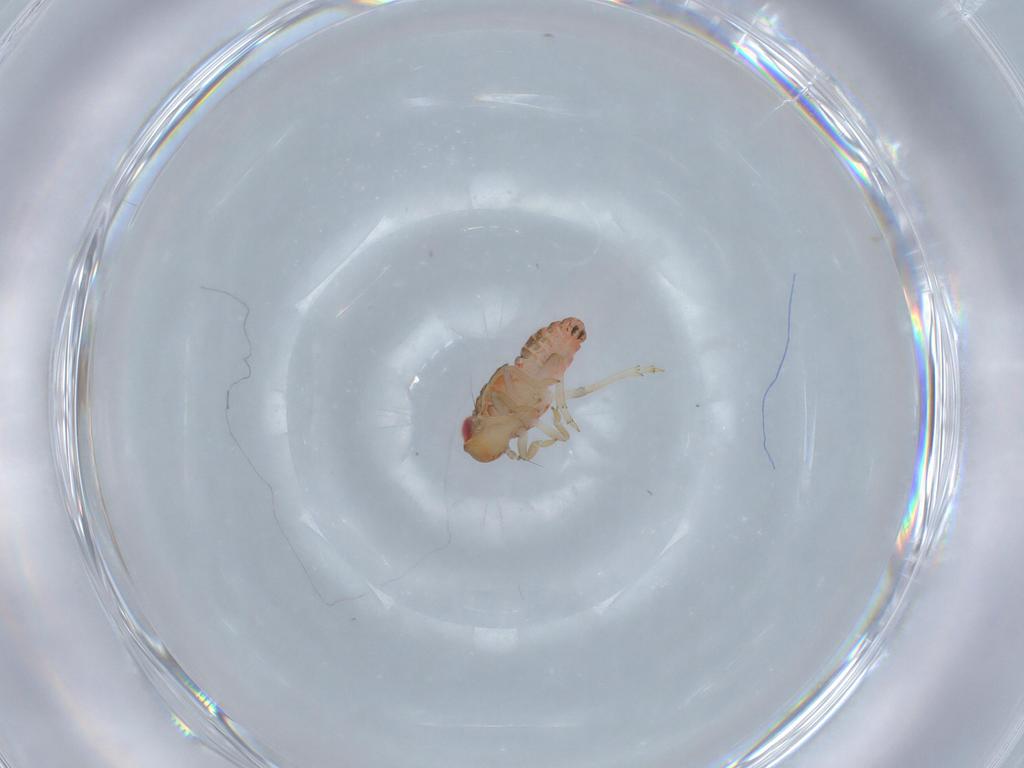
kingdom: Animalia
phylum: Arthropoda
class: Insecta
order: Hemiptera
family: Issidae
